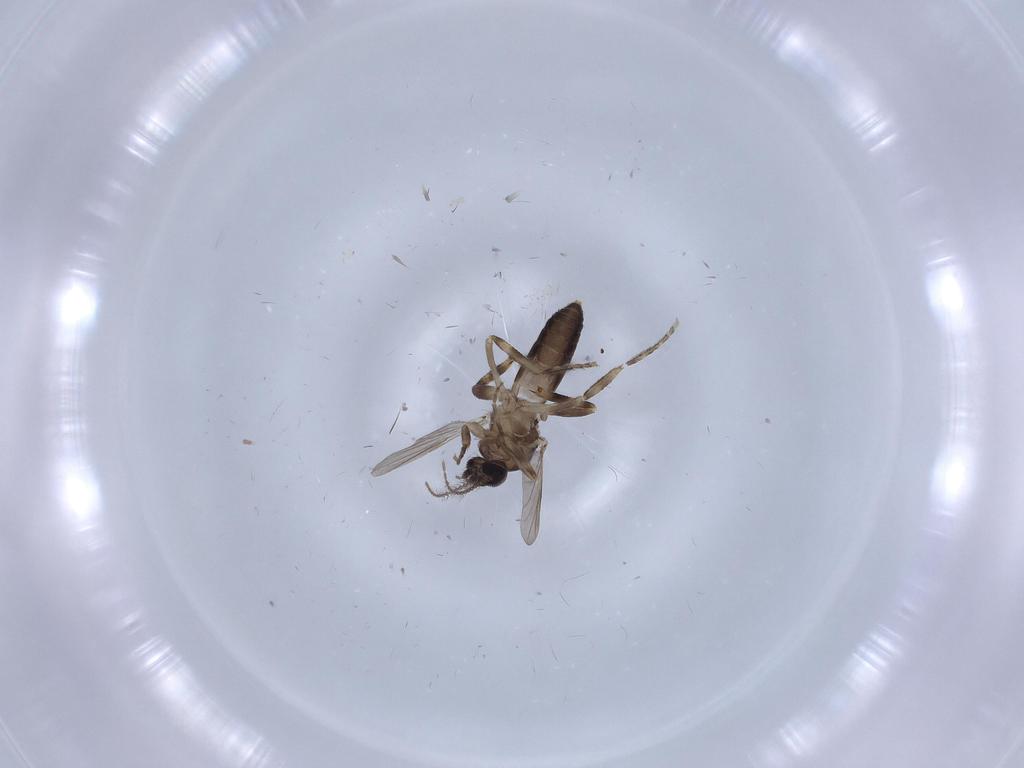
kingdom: Animalia
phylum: Arthropoda
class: Insecta
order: Diptera
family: Ceratopogonidae
